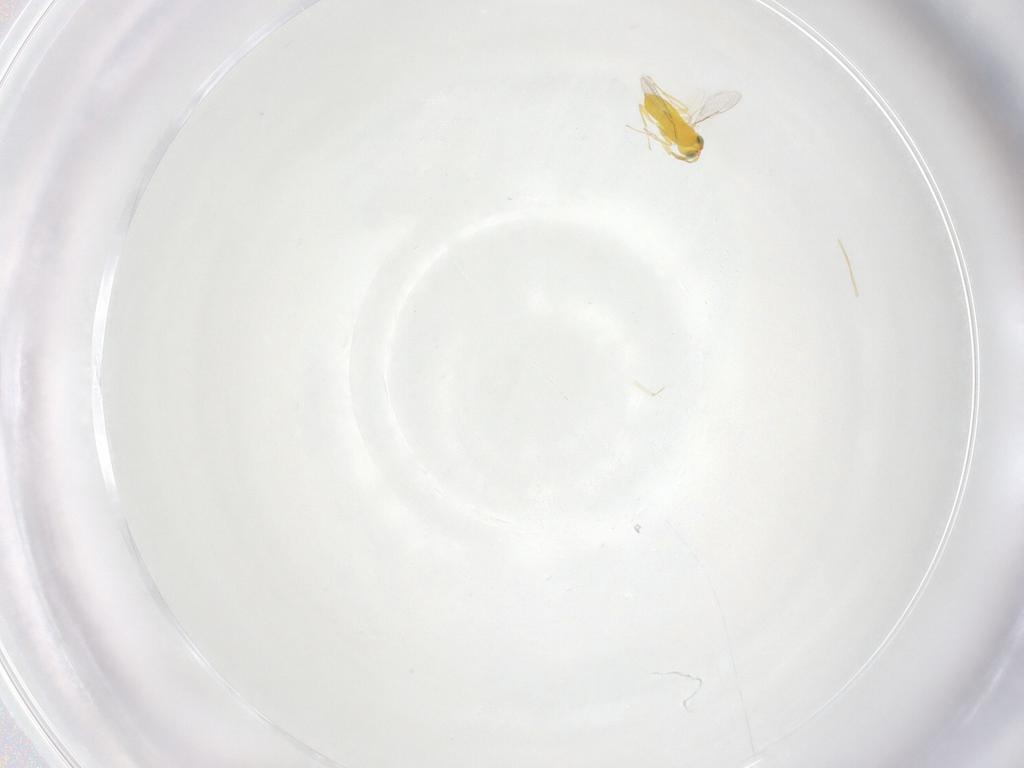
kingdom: Animalia
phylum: Arthropoda
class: Insecta
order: Hymenoptera
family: Aphelinidae
